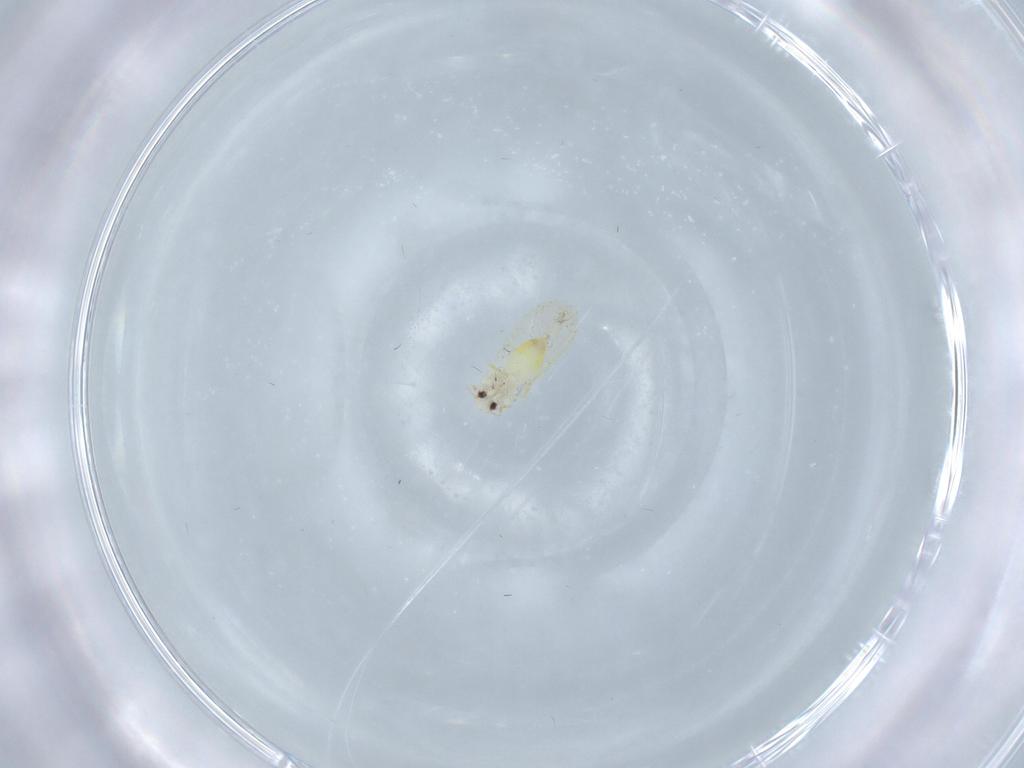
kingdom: Animalia
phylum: Arthropoda
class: Insecta
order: Hemiptera
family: Aleyrodidae
